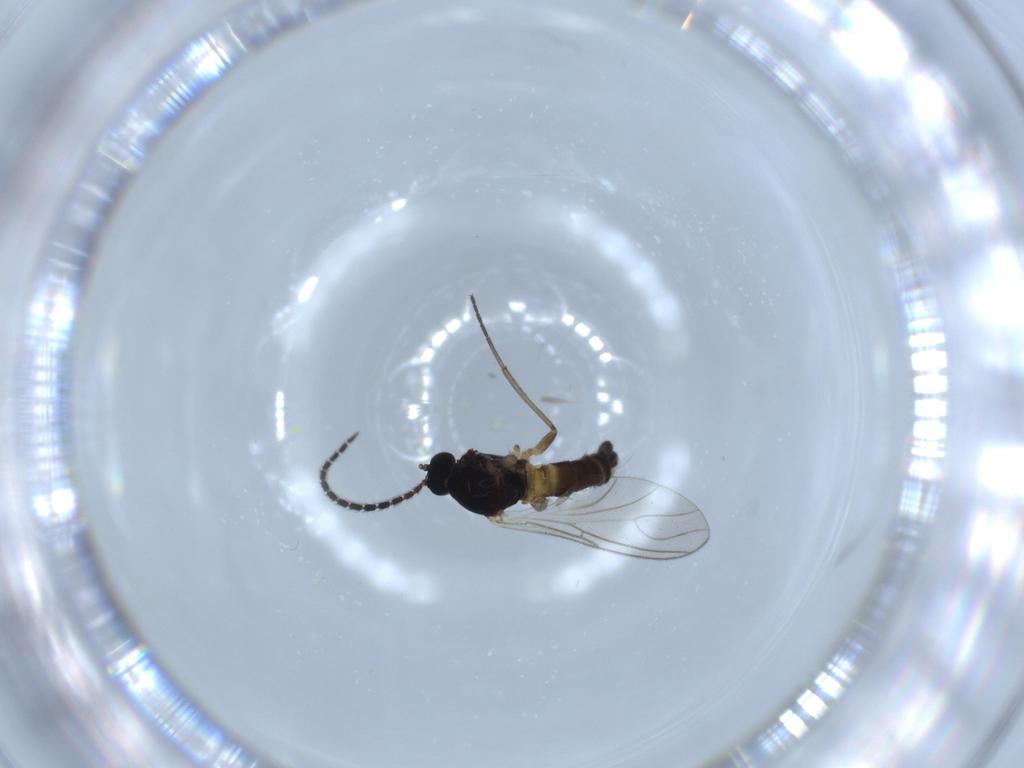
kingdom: Animalia
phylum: Arthropoda
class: Insecta
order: Diptera
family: Sciaridae
